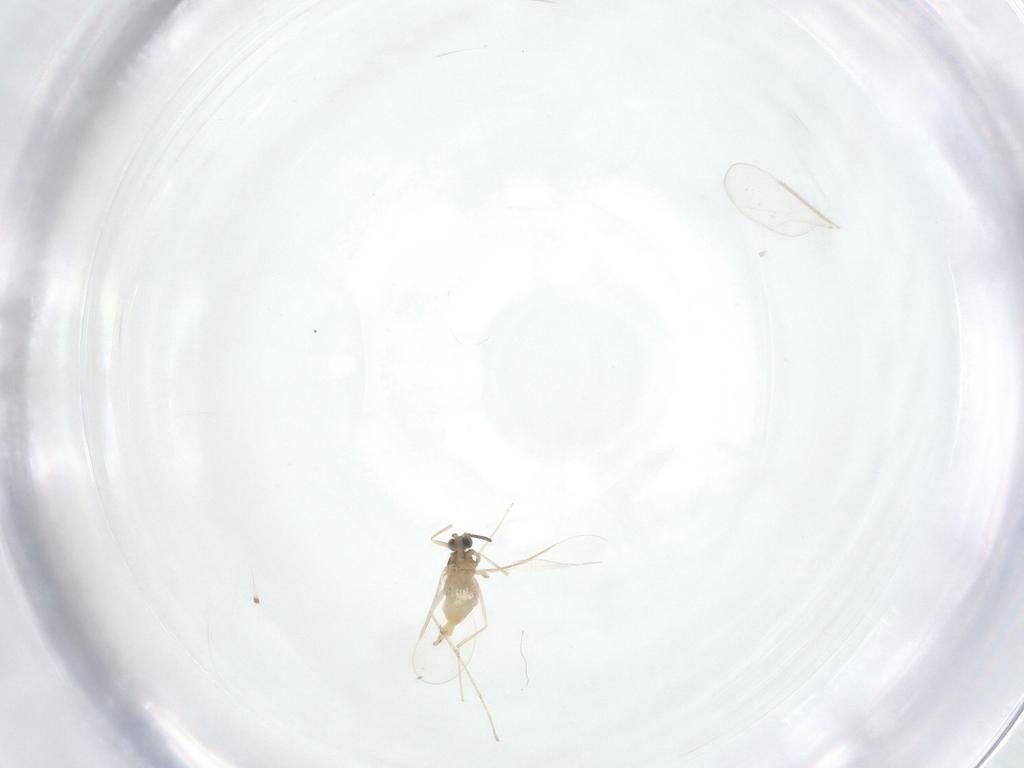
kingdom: Animalia
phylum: Arthropoda
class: Insecta
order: Diptera
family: Cecidomyiidae
